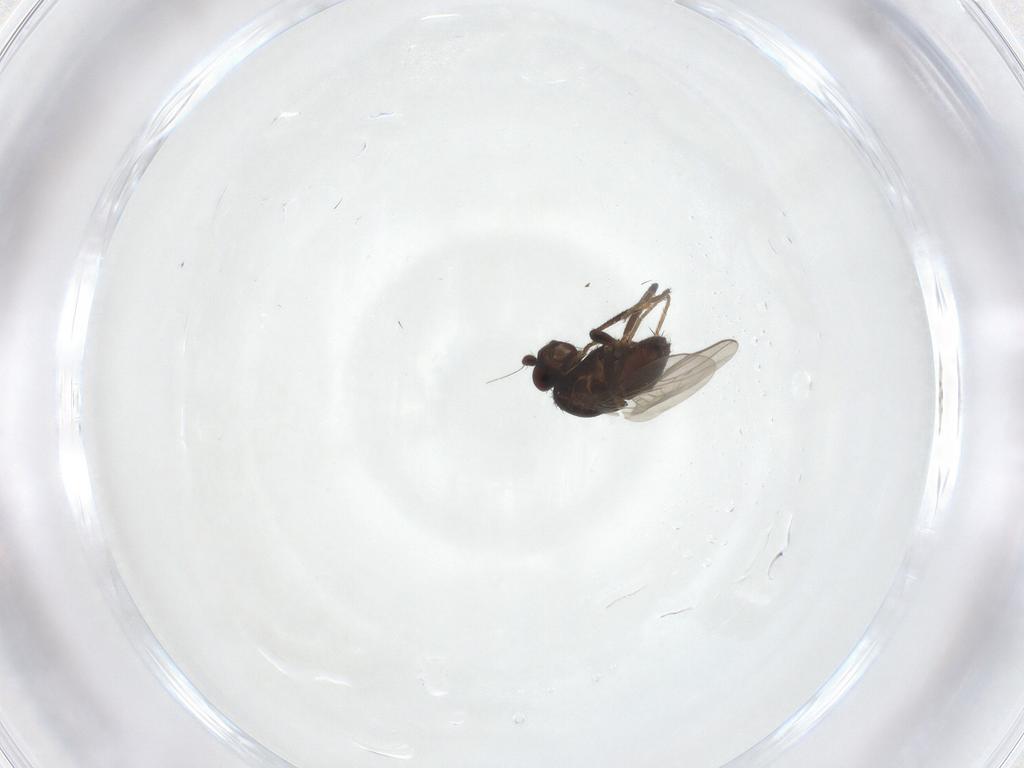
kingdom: Animalia
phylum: Arthropoda
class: Insecta
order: Diptera
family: Sphaeroceridae
